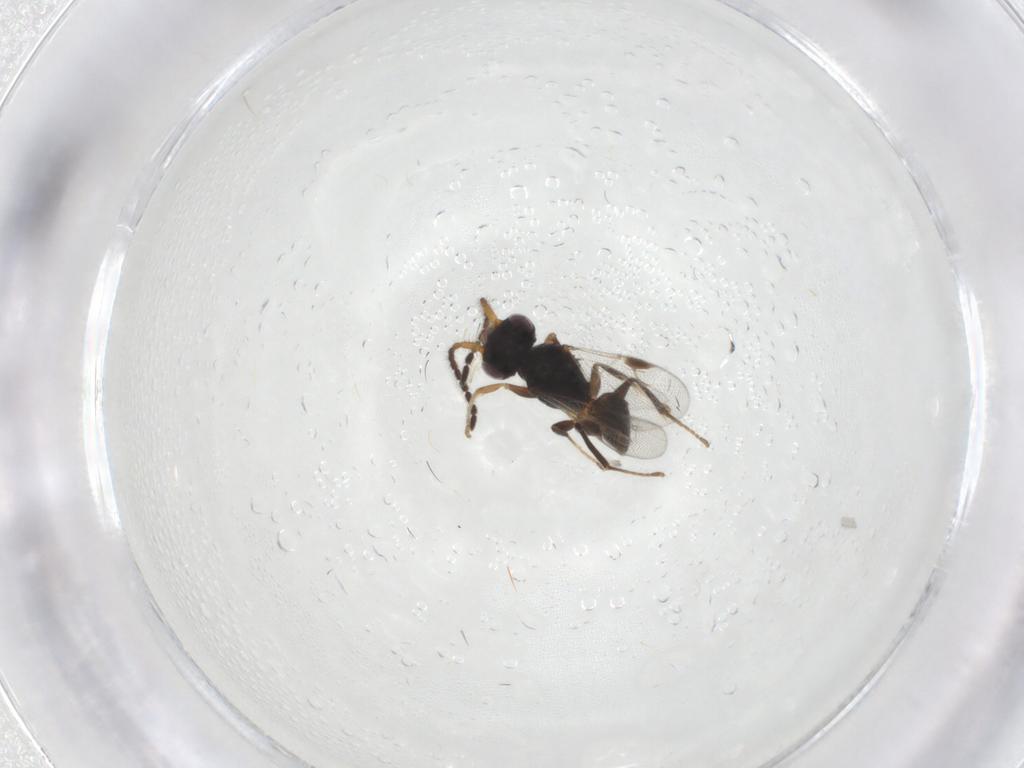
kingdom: Animalia
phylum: Arthropoda
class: Insecta
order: Hymenoptera
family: Dryinidae
